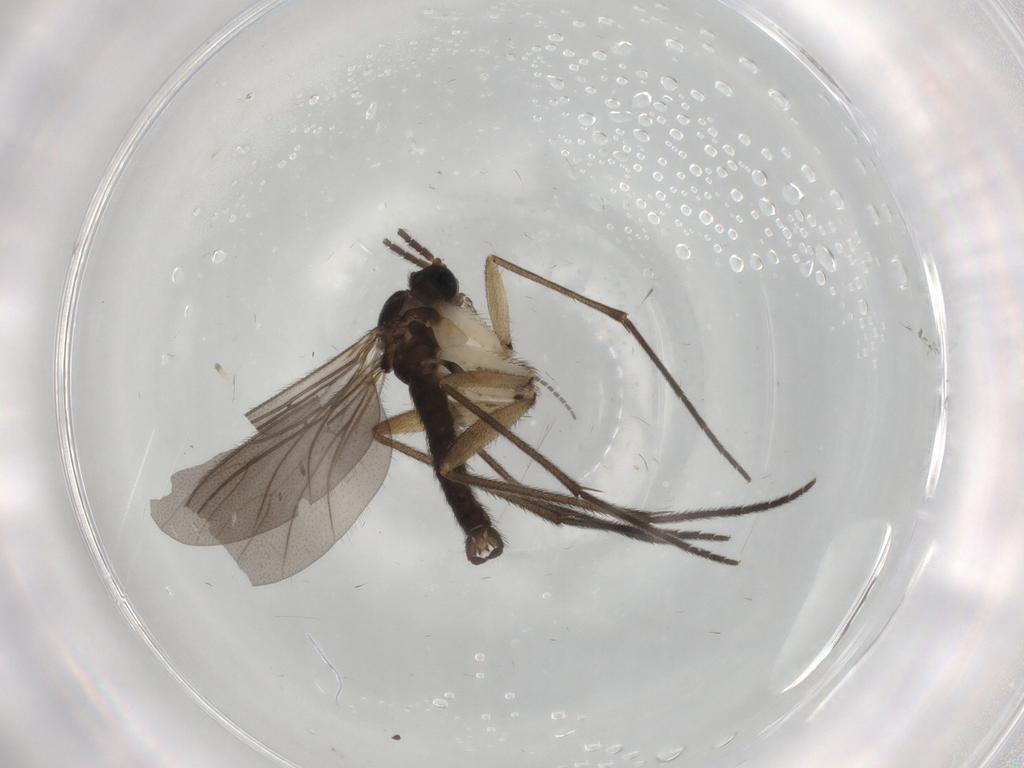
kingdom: Animalia
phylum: Arthropoda
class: Insecta
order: Diptera
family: Sciaridae
